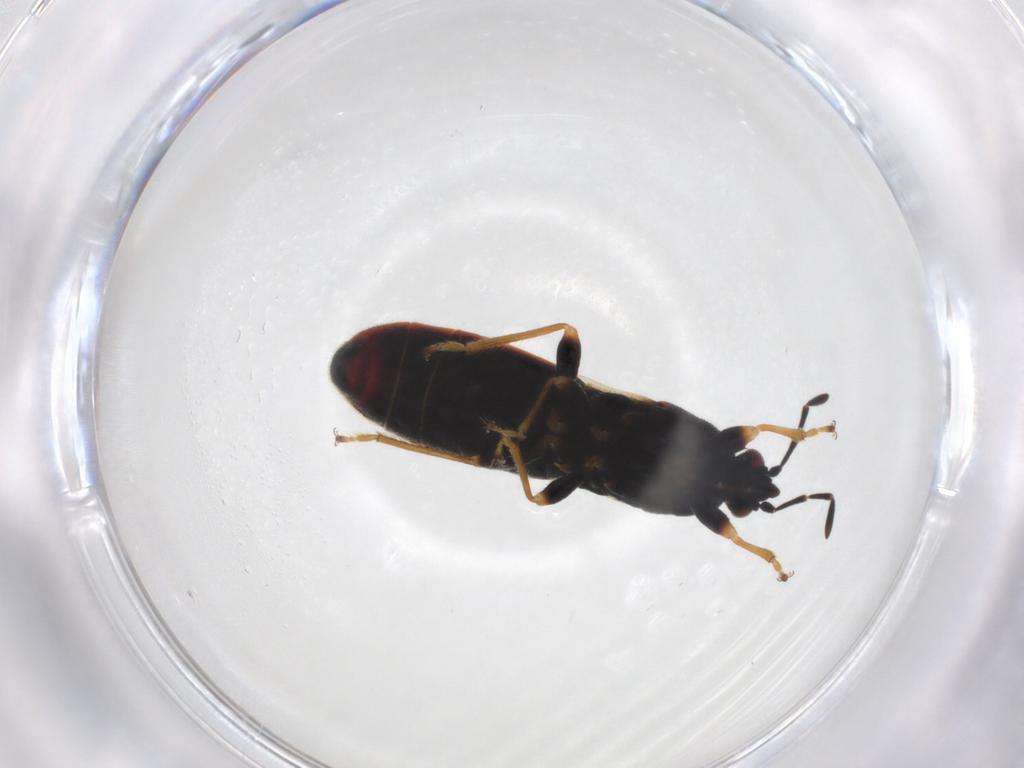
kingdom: Animalia
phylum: Arthropoda
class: Insecta
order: Hemiptera
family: Blissidae
